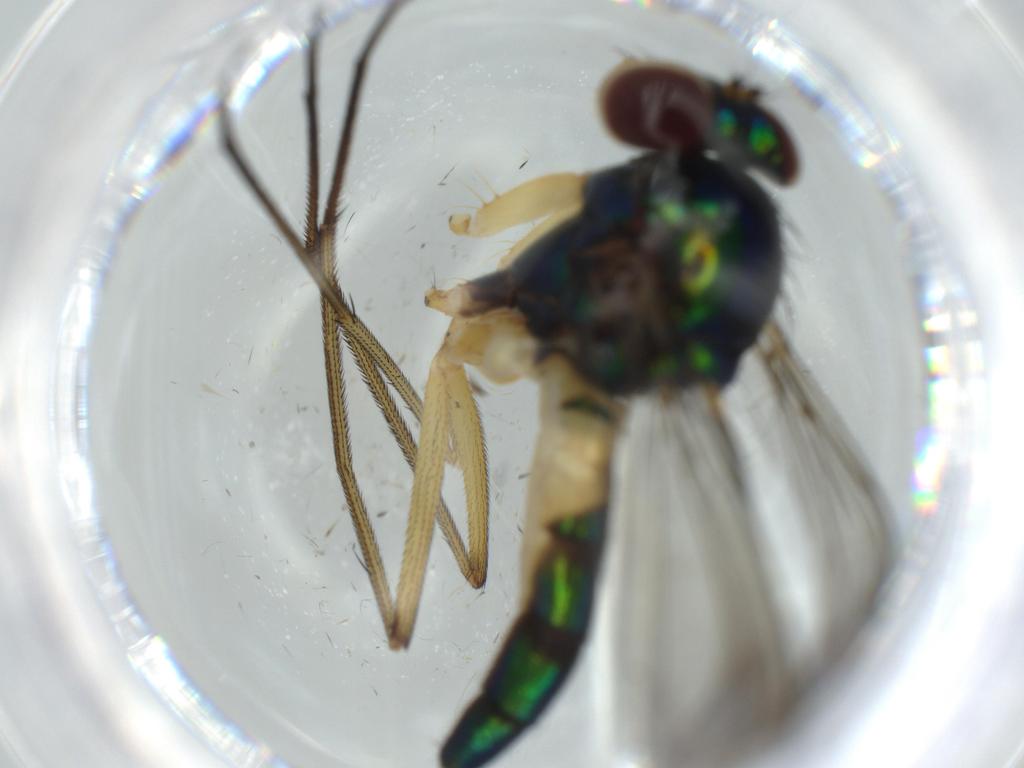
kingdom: Animalia
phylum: Arthropoda
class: Insecta
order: Diptera
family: Dolichopodidae
